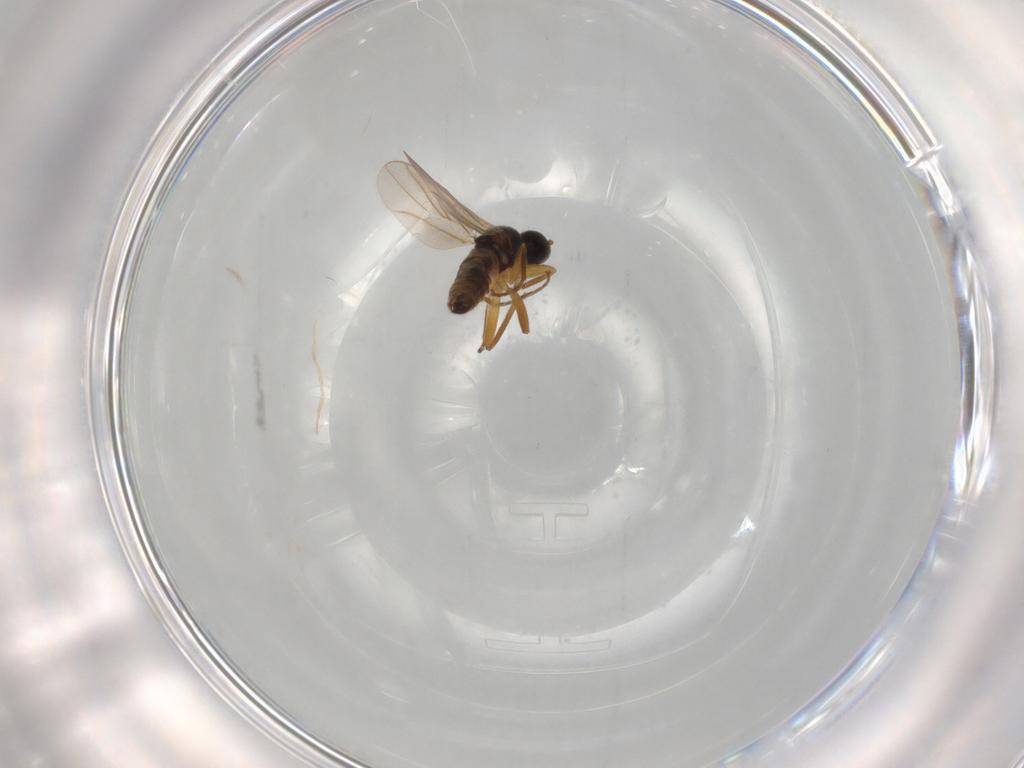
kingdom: Animalia
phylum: Arthropoda
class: Insecta
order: Diptera
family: Hybotidae
